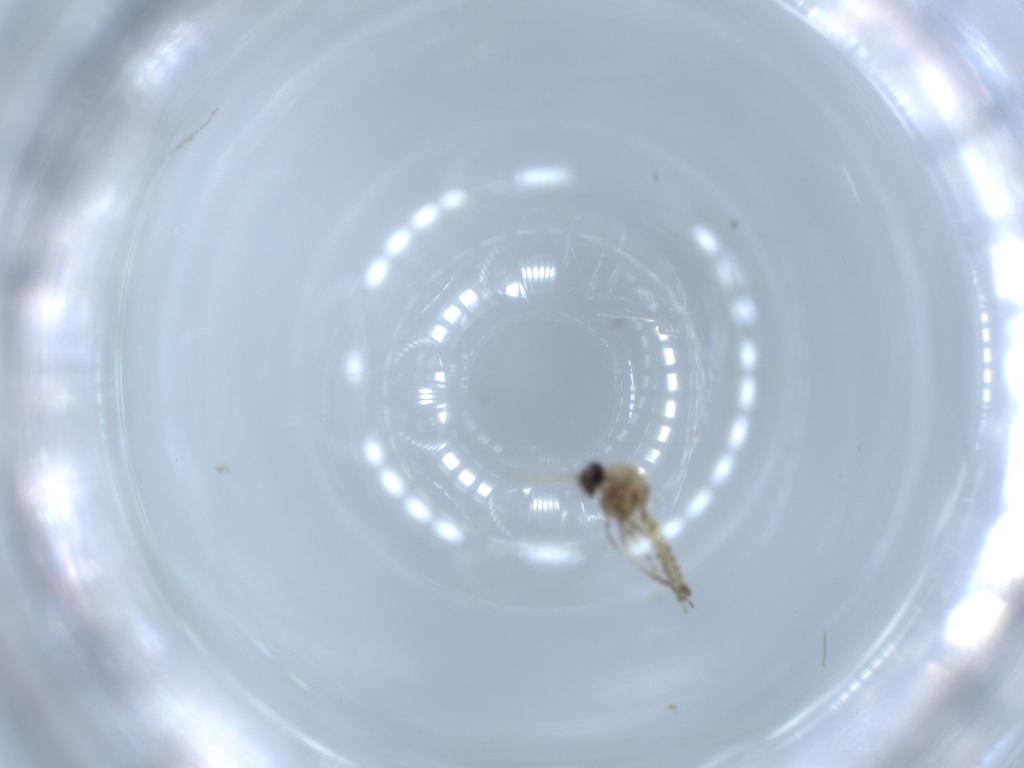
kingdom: Animalia
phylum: Arthropoda
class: Insecta
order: Diptera
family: Ceratopogonidae
